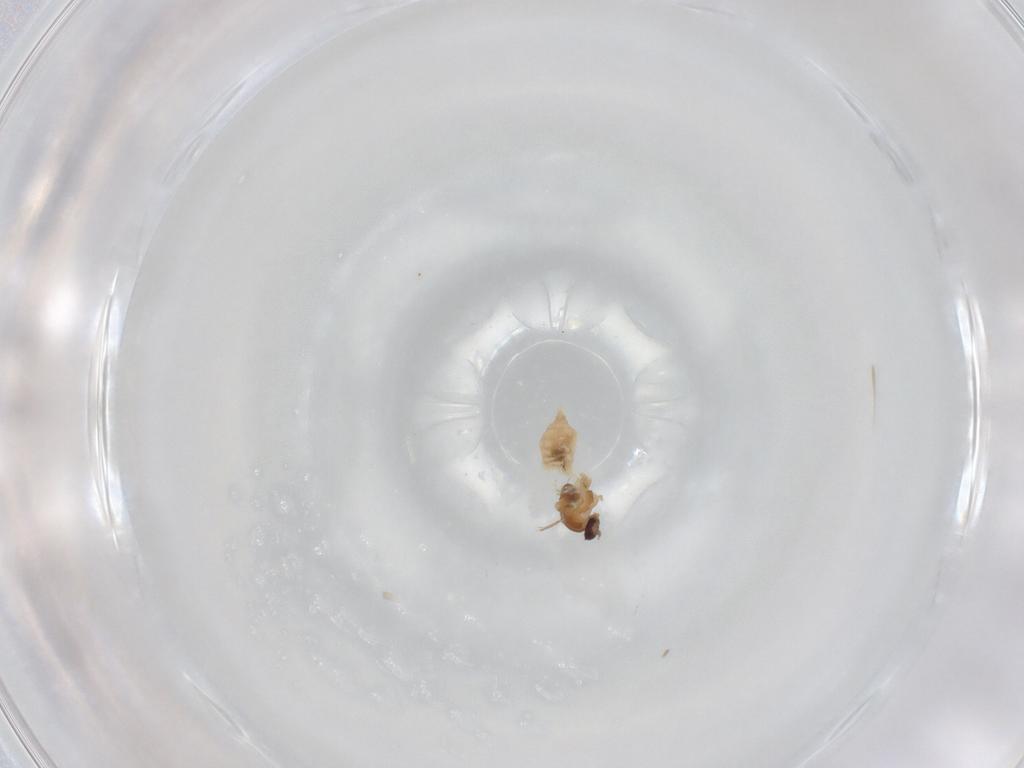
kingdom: Animalia
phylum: Arthropoda
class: Insecta
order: Diptera
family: Cecidomyiidae
